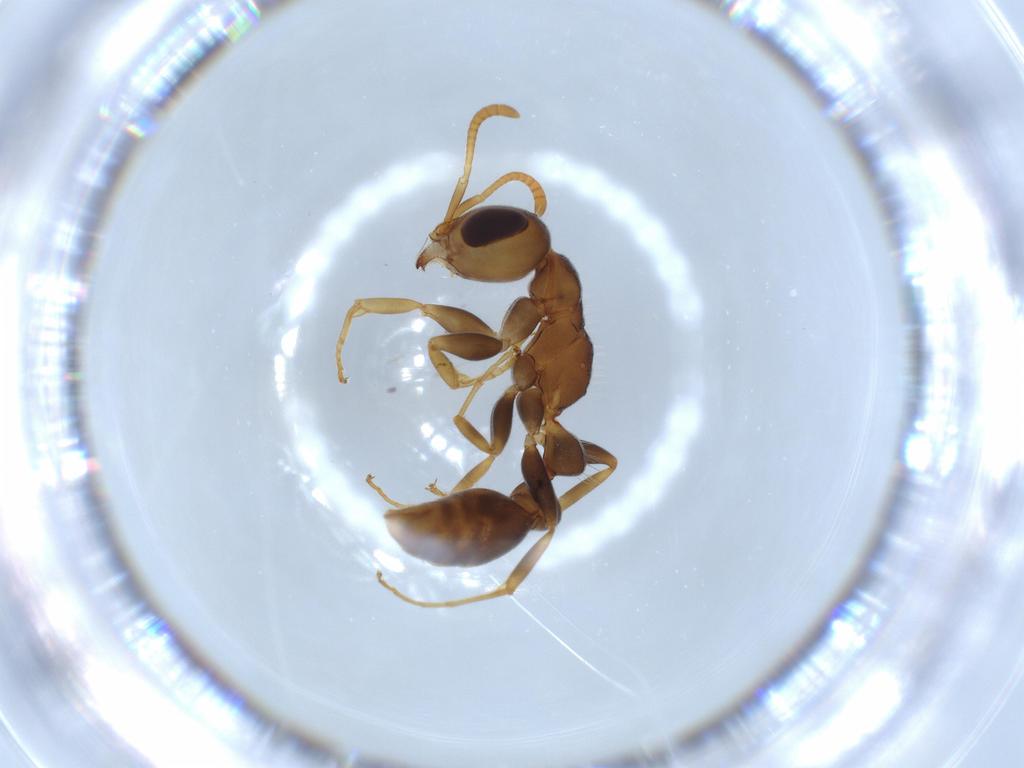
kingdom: Animalia
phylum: Arthropoda
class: Insecta
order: Hymenoptera
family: Formicidae
